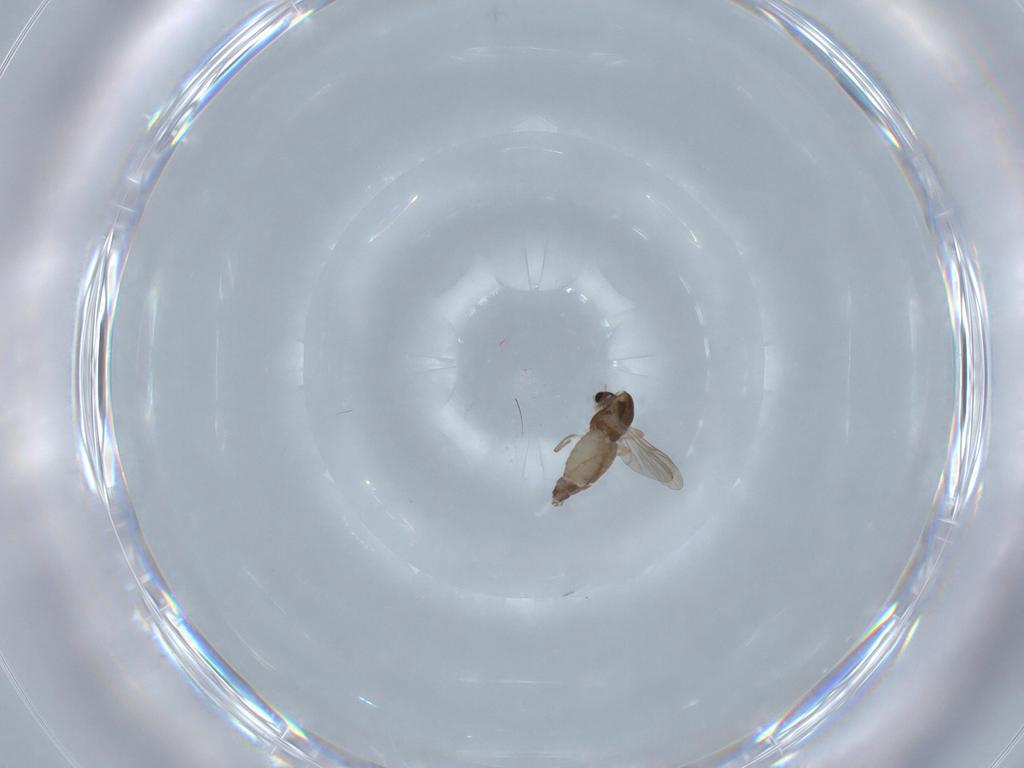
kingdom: Animalia
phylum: Arthropoda
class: Insecta
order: Diptera
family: Chironomidae
